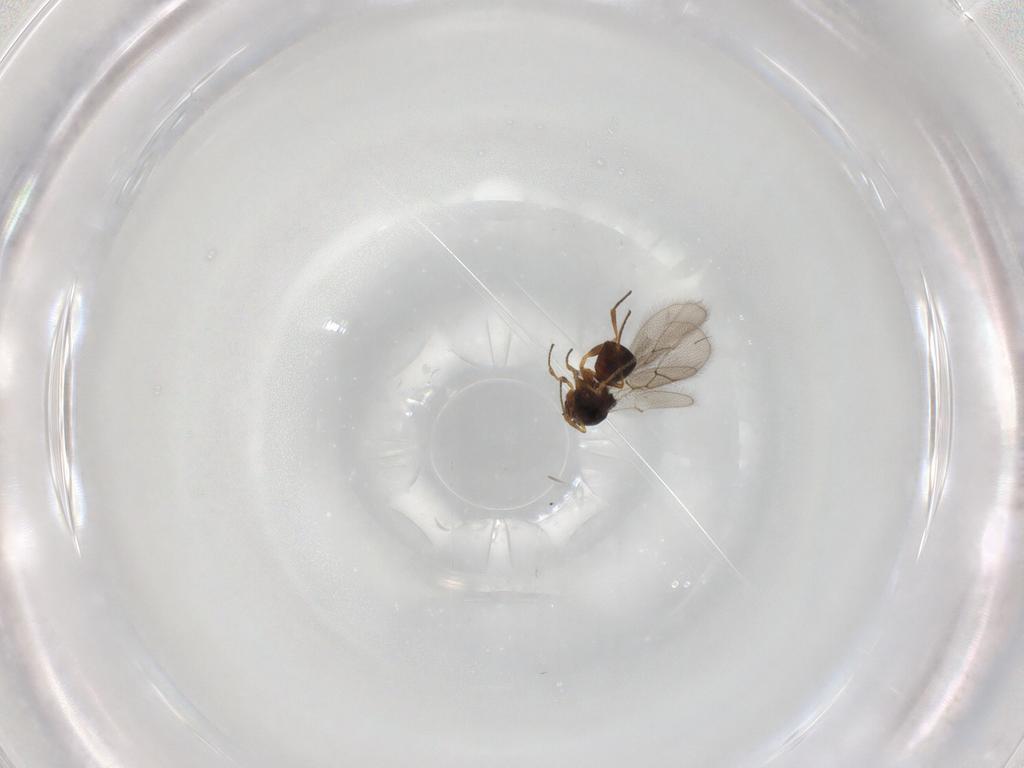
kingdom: Animalia
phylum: Arthropoda
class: Insecta
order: Hymenoptera
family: Figitidae
